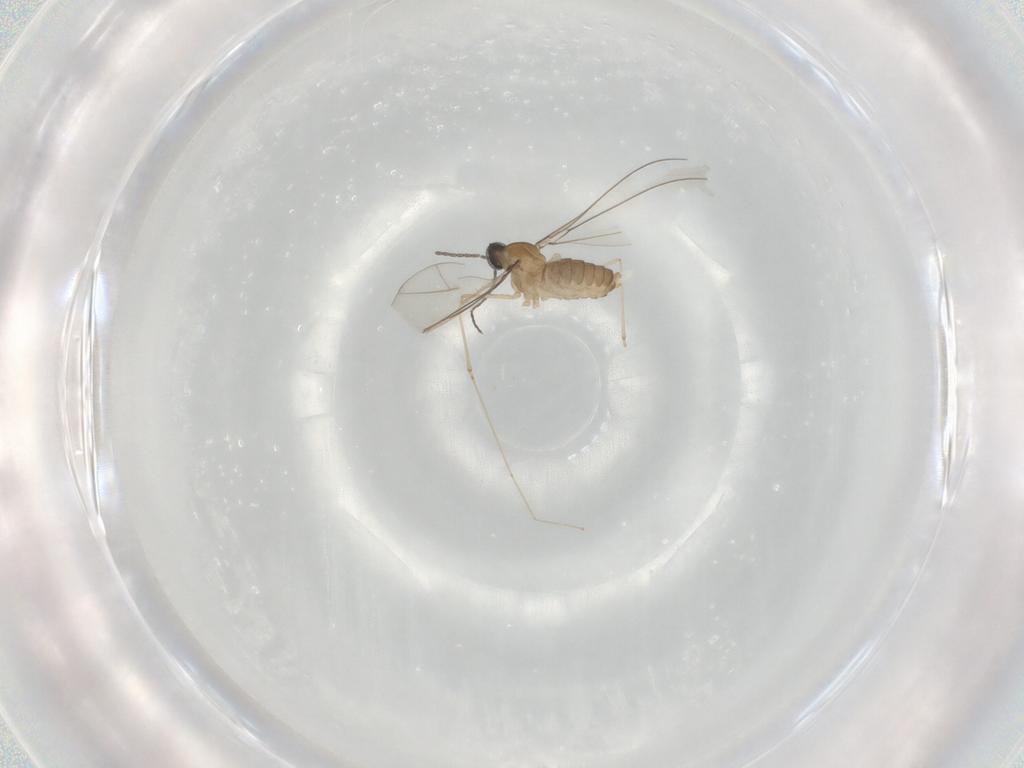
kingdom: Animalia
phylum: Arthropoda
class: Insecta
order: Diptera
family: Cecidomyiidae
